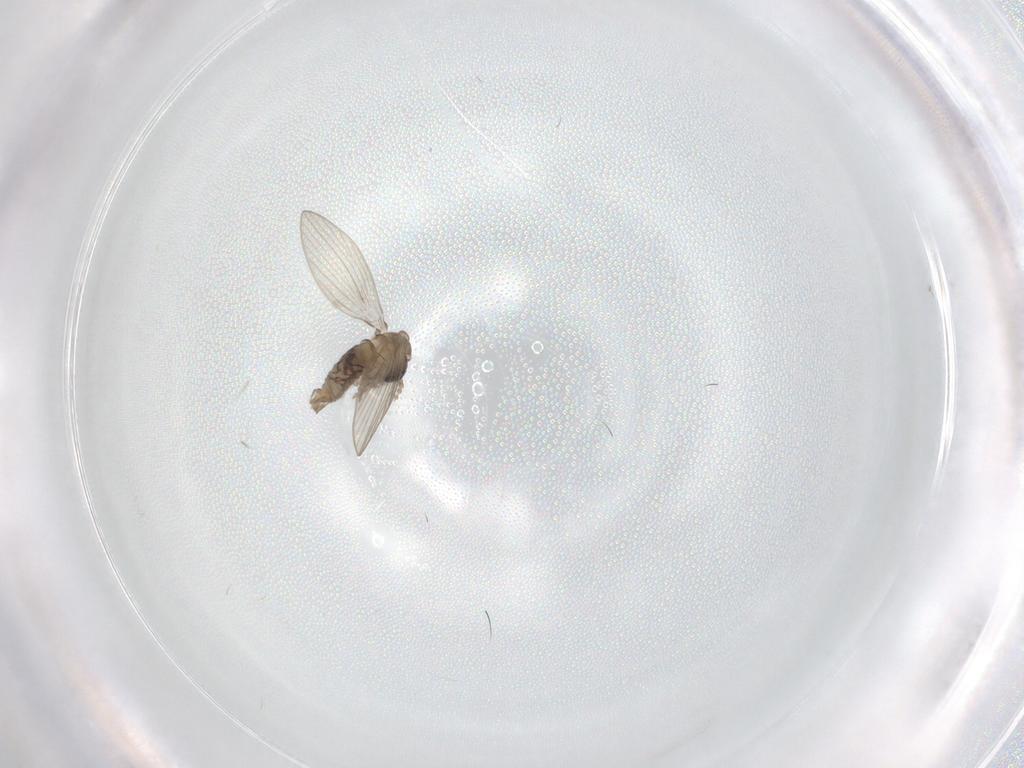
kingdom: Animalia
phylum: Arthropoda
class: Insecta
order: Diptera
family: Psychodidae
